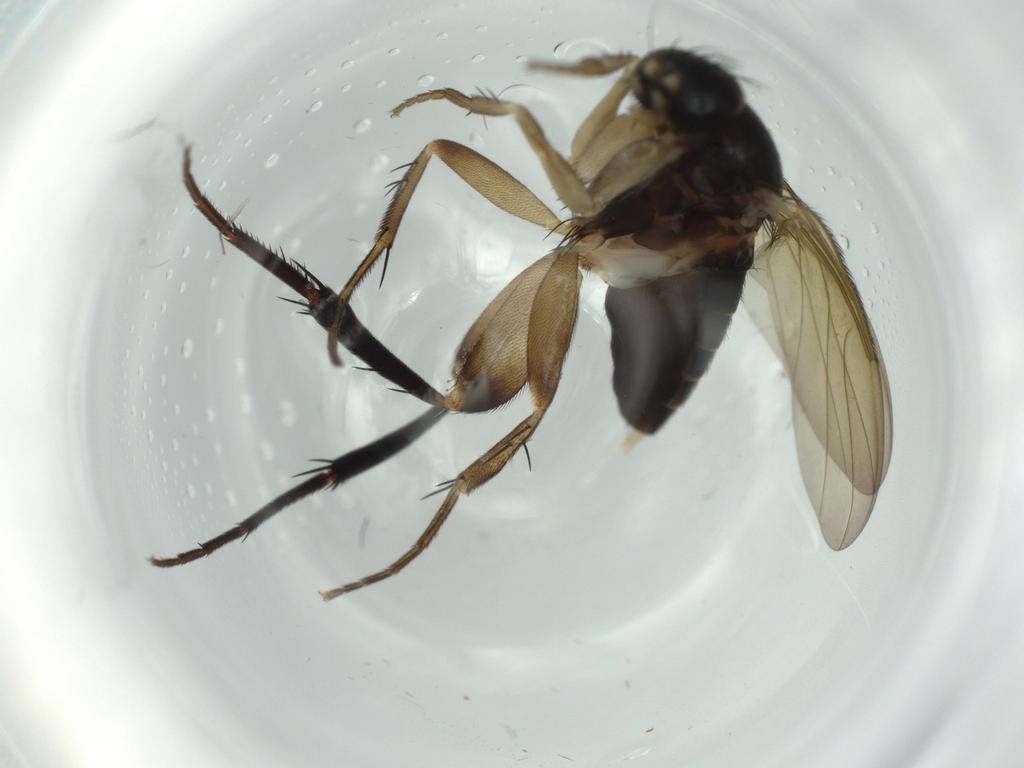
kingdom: Animalia
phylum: Arthropoda
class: Insecta
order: Diptera
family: Phoridae
